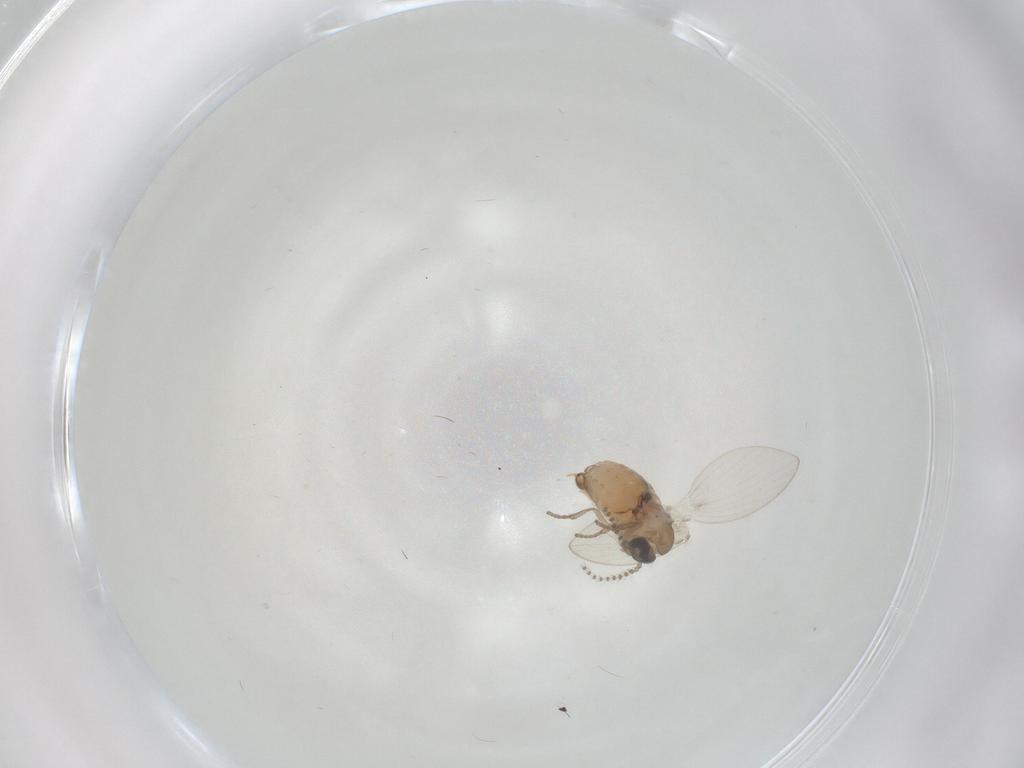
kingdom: Animalia
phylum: Arthropoda
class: Insecta
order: Diptera
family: Psychodidae
